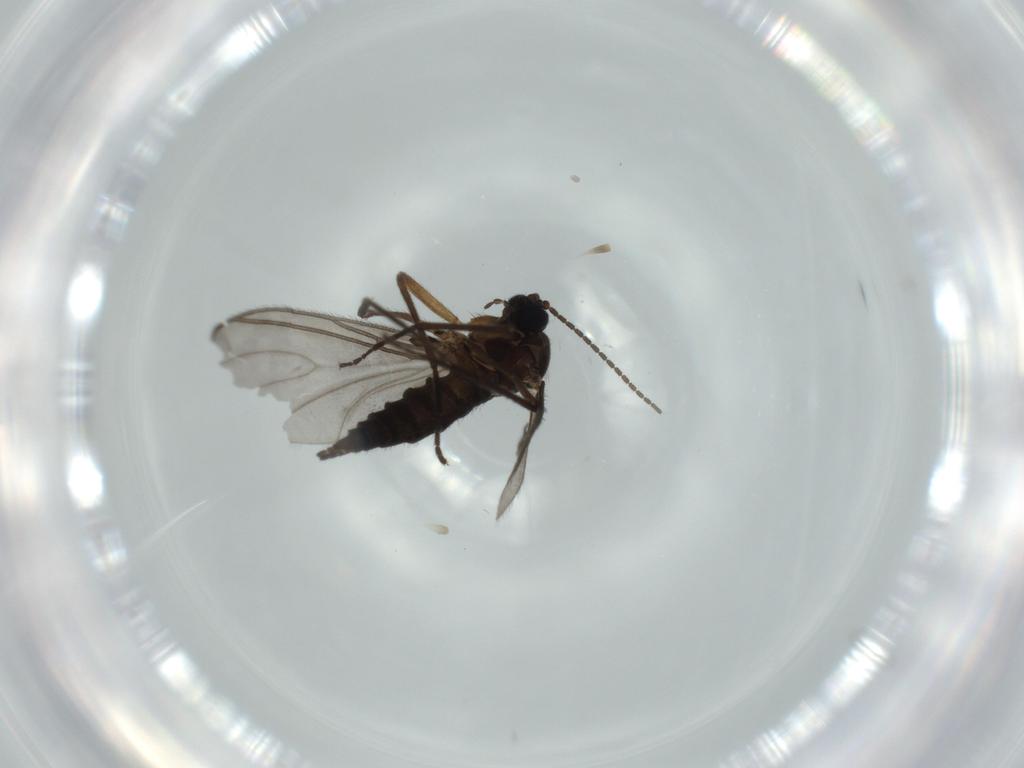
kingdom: Animalia
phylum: Arthropoda
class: Insecta
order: Diptera
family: Sciaridae
